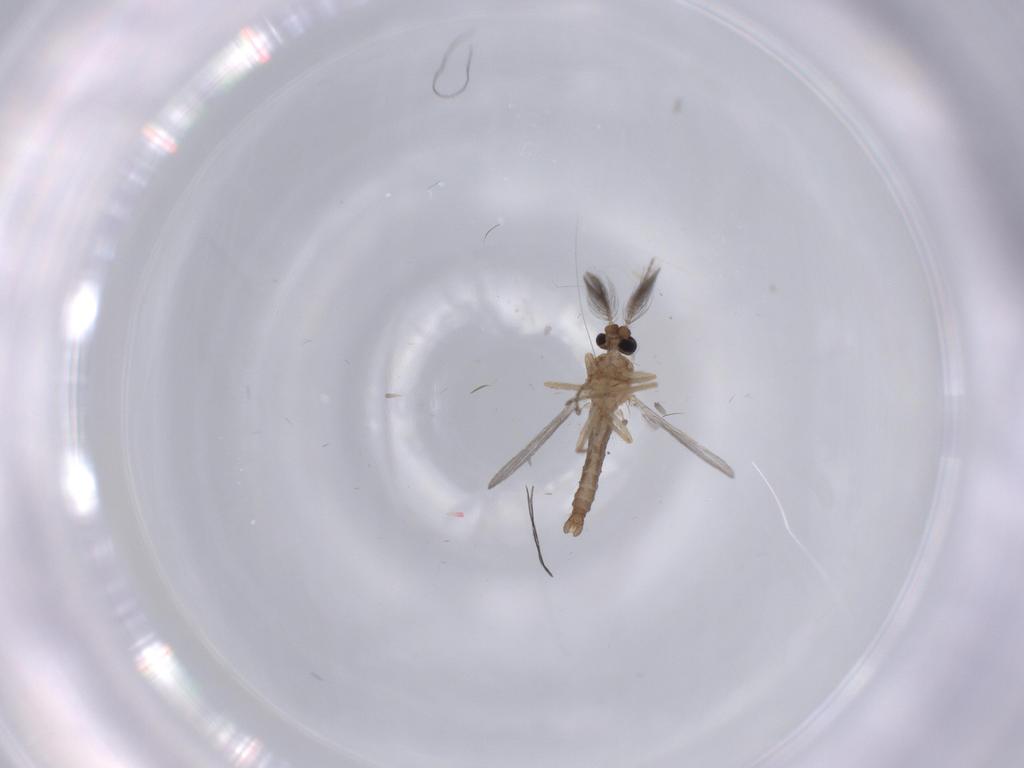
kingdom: Animalia
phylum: Arthropoda
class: Insecta
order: Diptera
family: Ceratopogonidae
